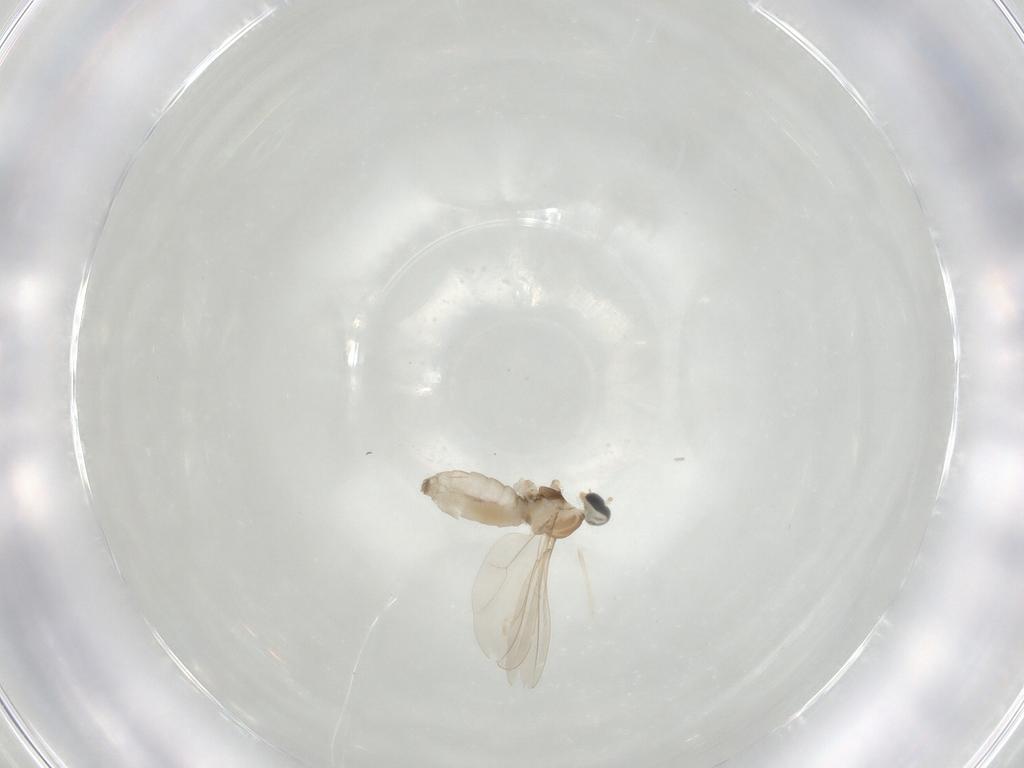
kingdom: Animalia
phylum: Arthropoda
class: Insecta
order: Diptera
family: Cecidomyiidae
